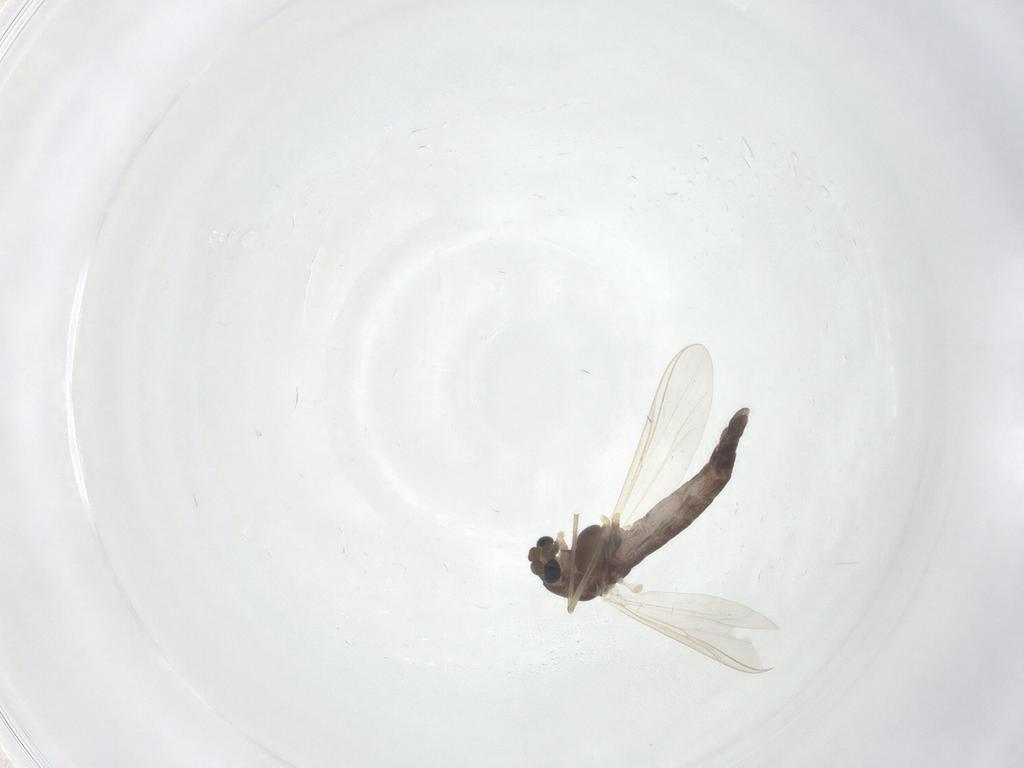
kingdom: Animalia
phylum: Arthropoda
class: Insecta
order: Diptera
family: Chironomidae
